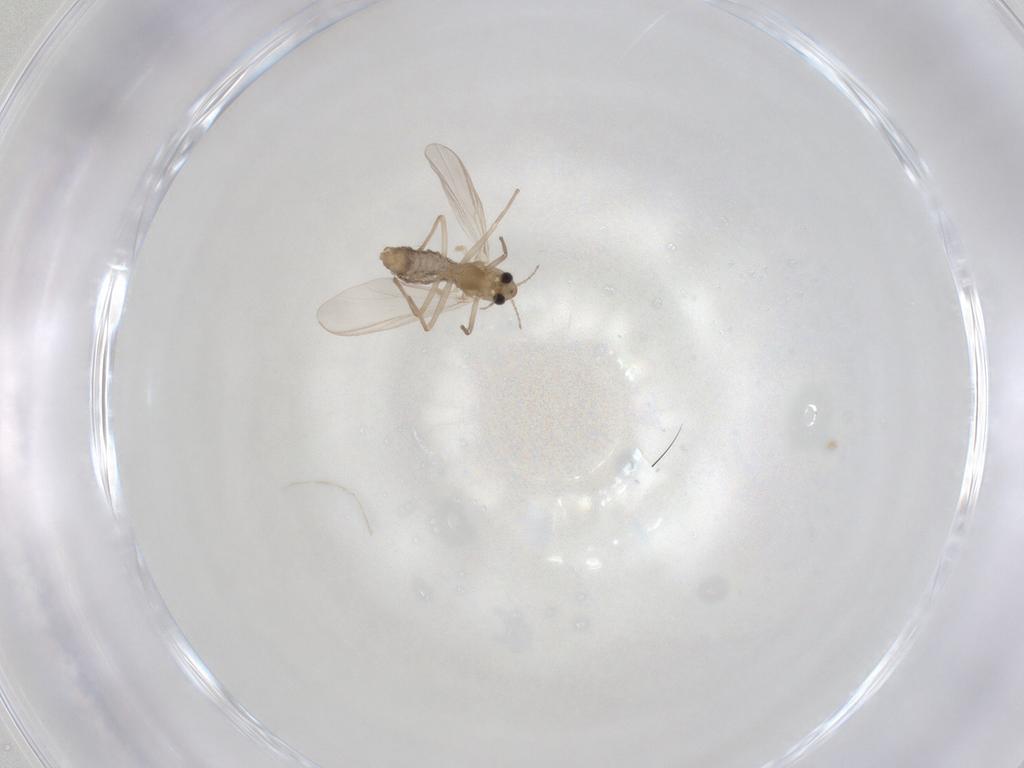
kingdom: Animalia
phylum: Arthropoda
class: Insecta
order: Diptera
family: Chironomidae
